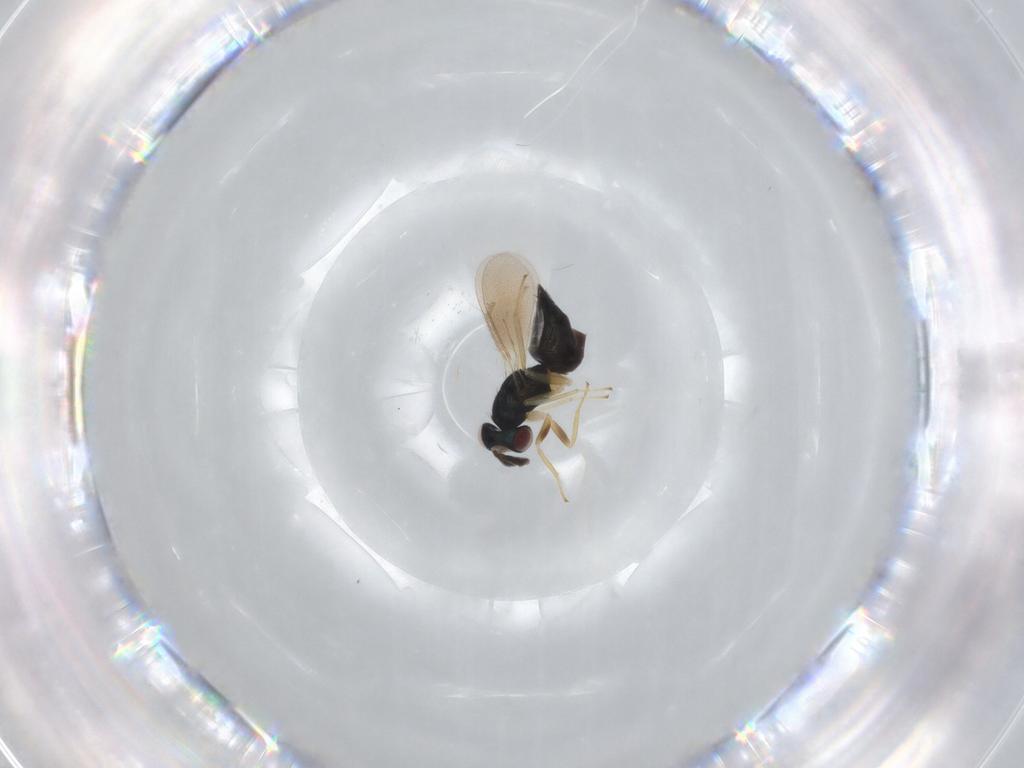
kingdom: Animalia
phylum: Arthropoda
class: Insecta
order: Hymenoptera
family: Eulophidae
